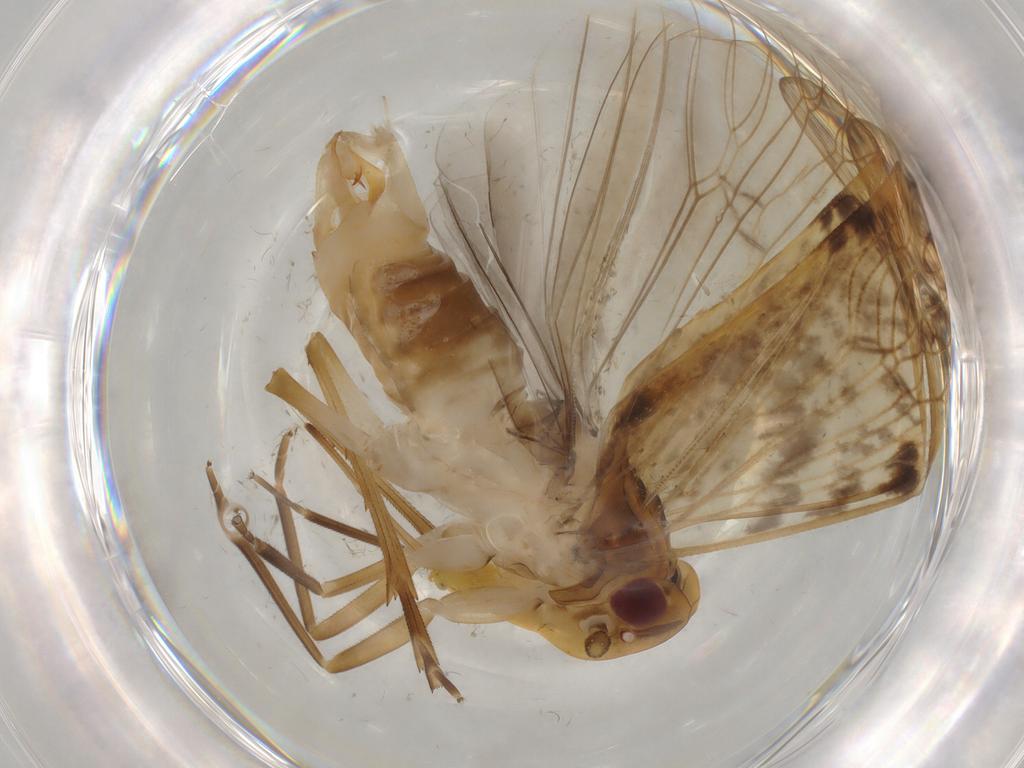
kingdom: Animalia
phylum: Arthropoda
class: Insecta
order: Hemiptera
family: Cixiidae
